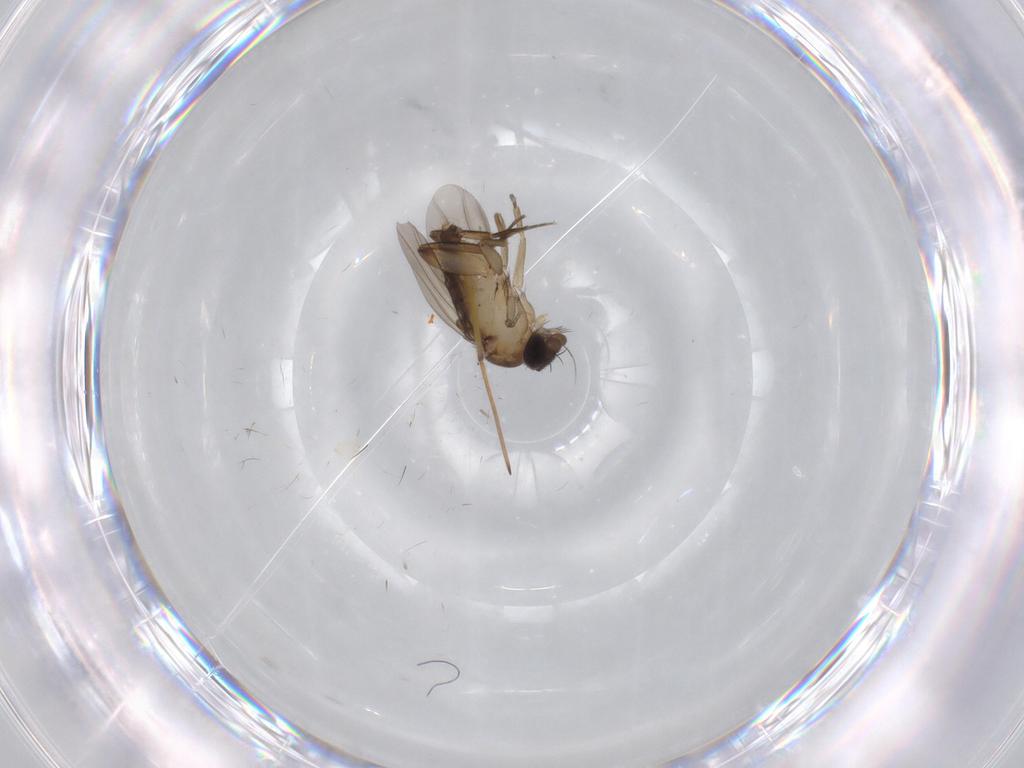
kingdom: Animalia
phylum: Arthropoda
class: Insecta
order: Diptera
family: Phoridae
